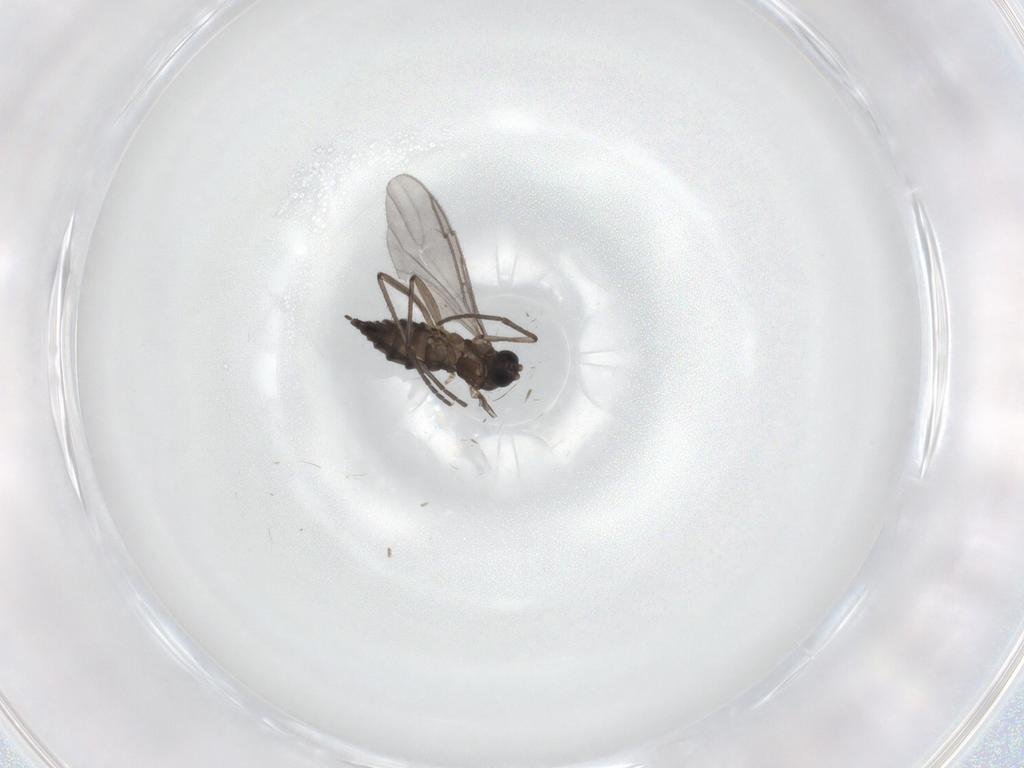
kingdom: Animalia
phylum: Arthropoda
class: Insecta
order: Diptera
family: Sciaridae
